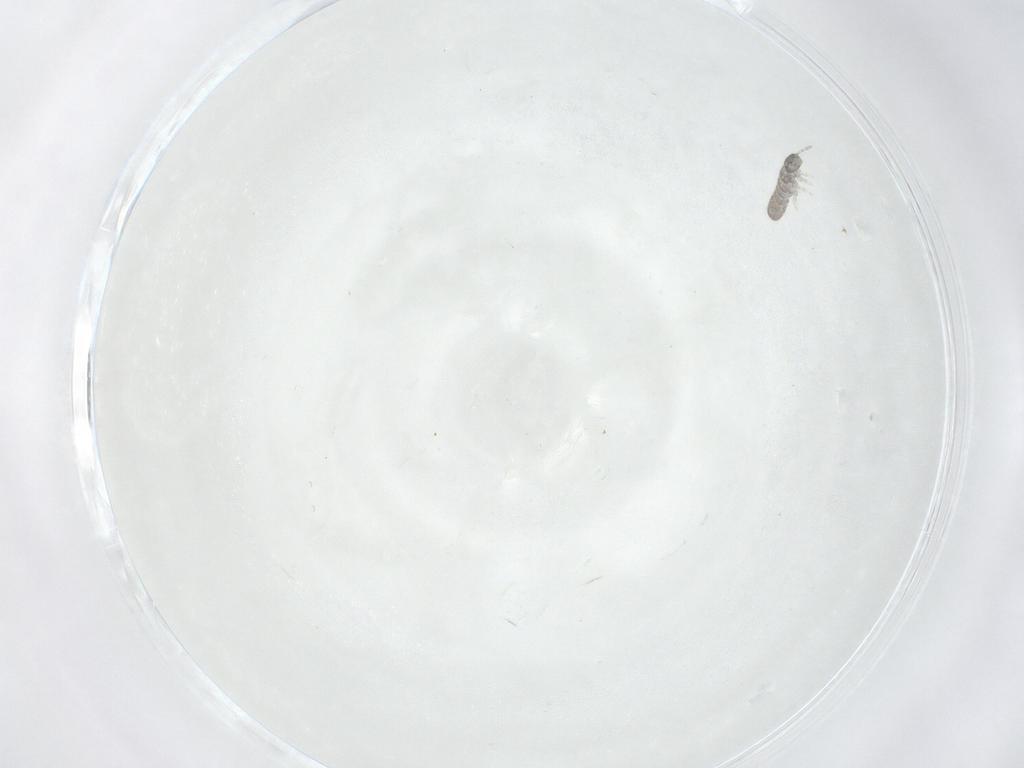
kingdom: Animalia
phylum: Arthropoda
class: Collembola
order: Entomobryomorpha
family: Isotomidae
